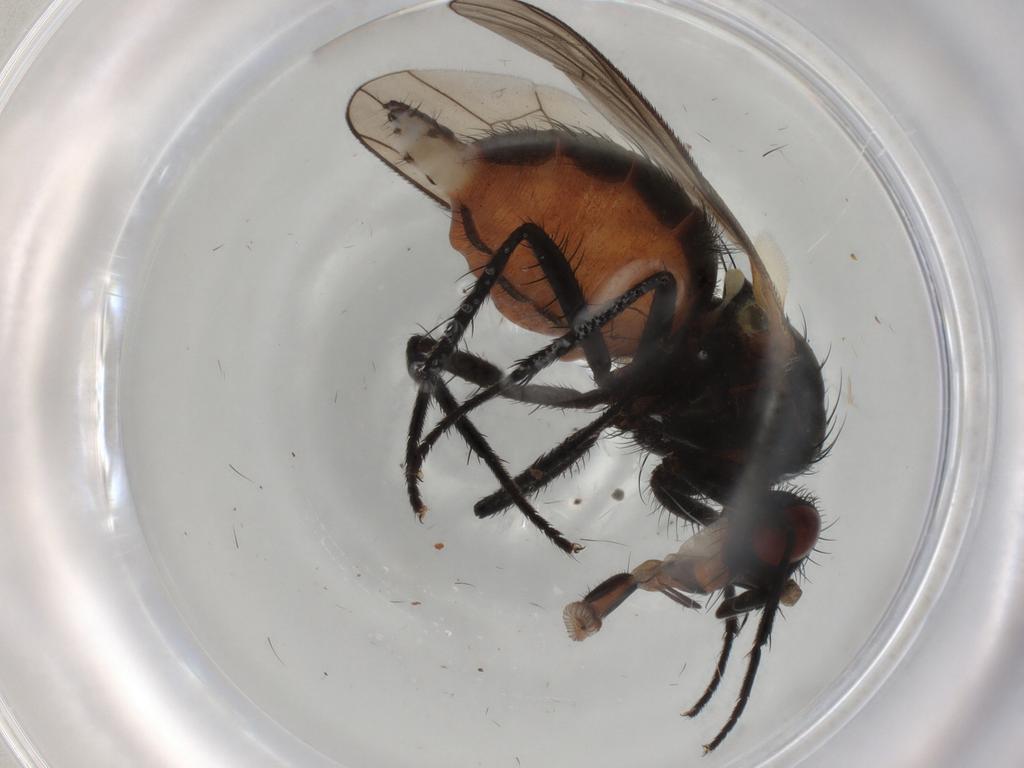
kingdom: Animalia
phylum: Arthropoda
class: Insecta
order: Diptera
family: Anthomyiidae
